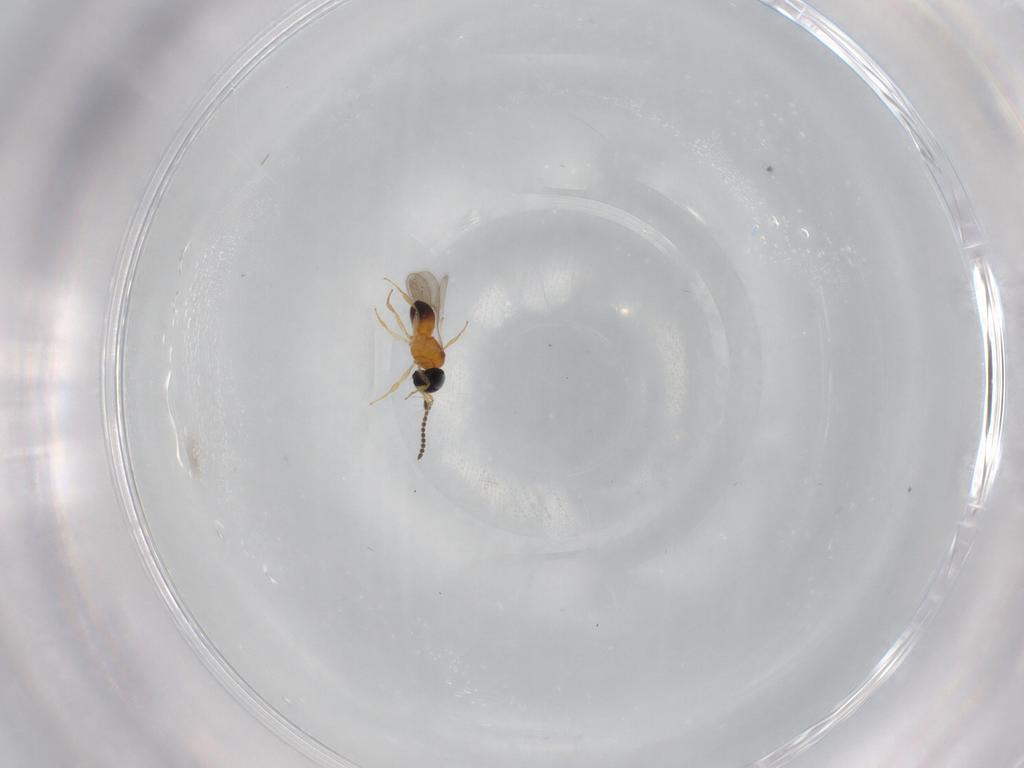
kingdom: Animalia
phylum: Arthropoda
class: Insecta
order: Hymenoptera
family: Scelionidae
